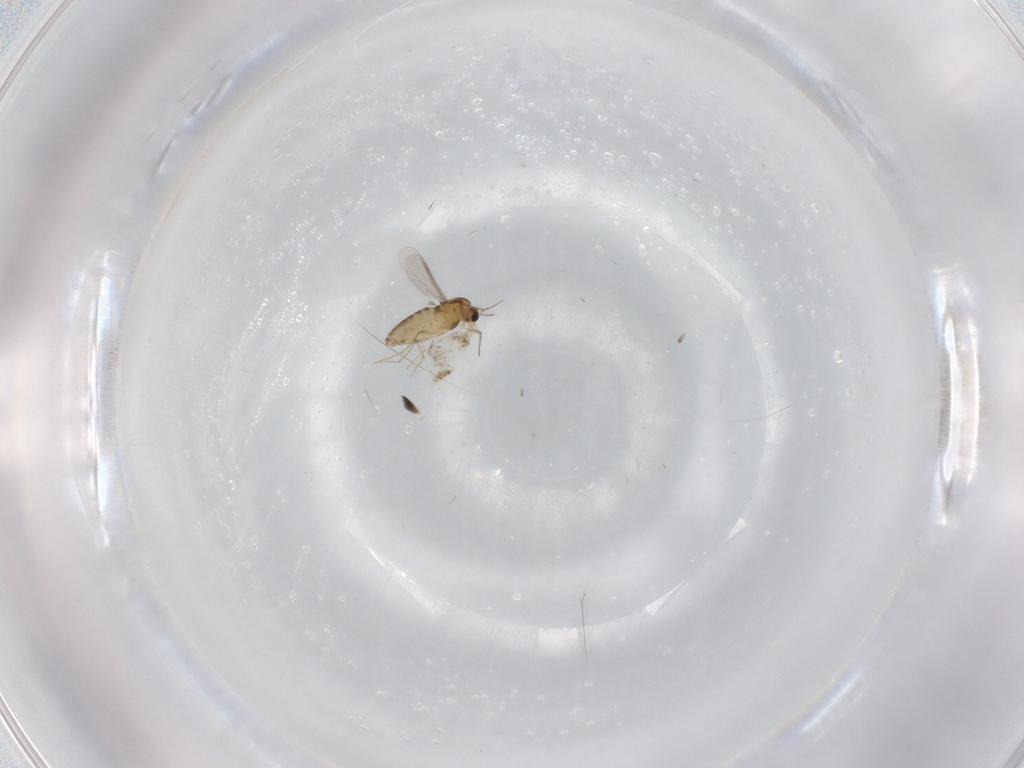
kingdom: Animalia
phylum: Arthropoda
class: Insecta
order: Diptera
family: Chironomidae
